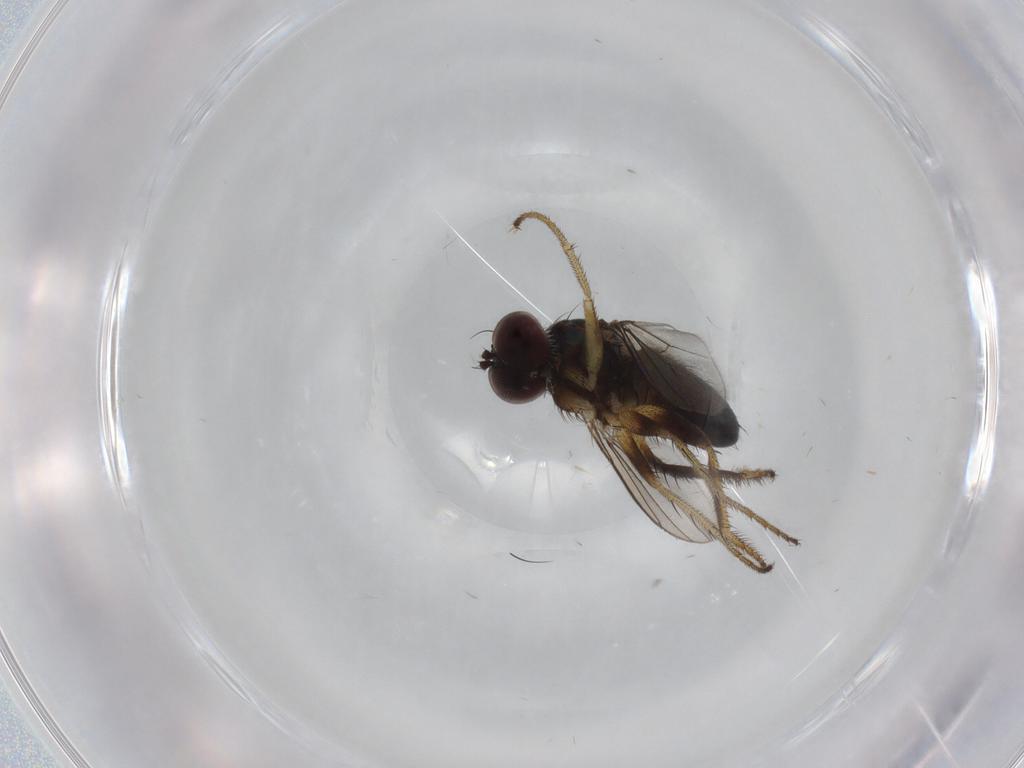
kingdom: Animalia
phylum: Arthropoda
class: Insecta
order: Diptera
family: Dolichopodidae
